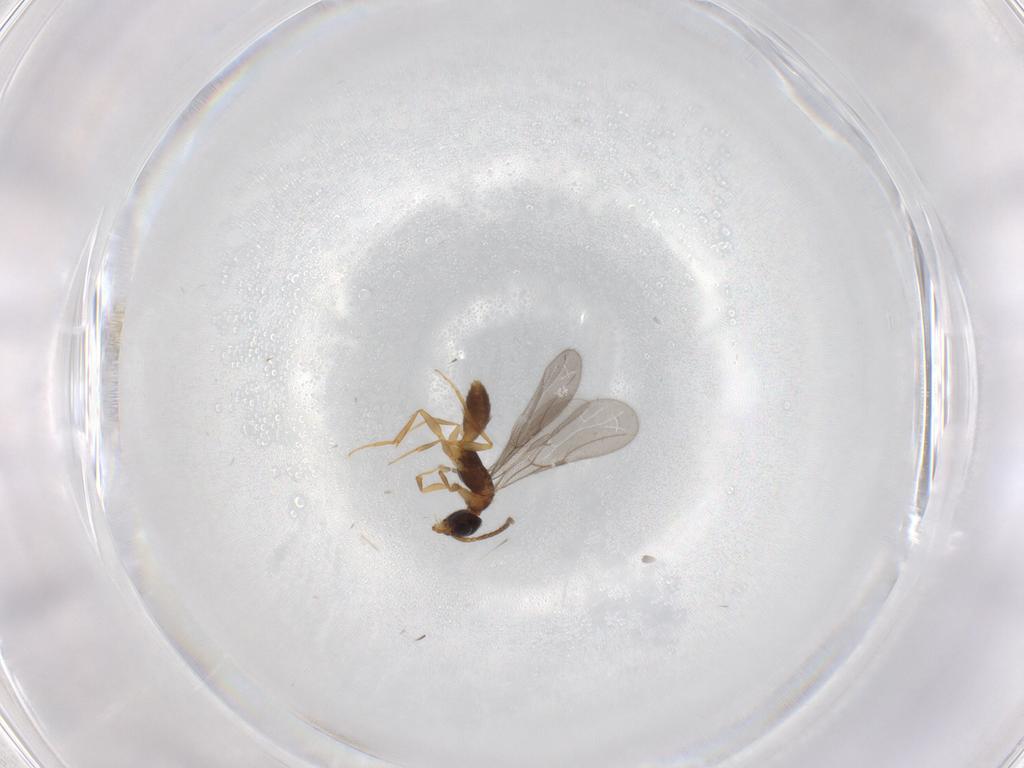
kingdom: Animalia
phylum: Arthropoda
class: Insecta
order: Hymenoptera
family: Bethylidae
